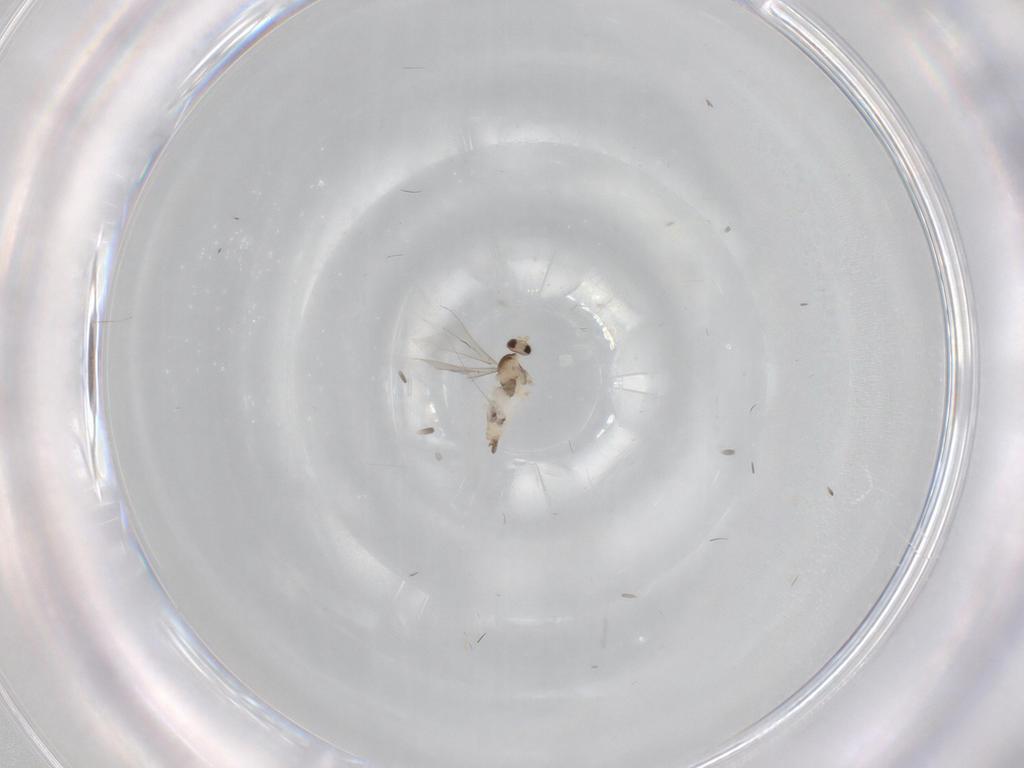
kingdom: Animalia
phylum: Arthropoda
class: Insecta
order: Diptera
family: Cecidomyiidae
